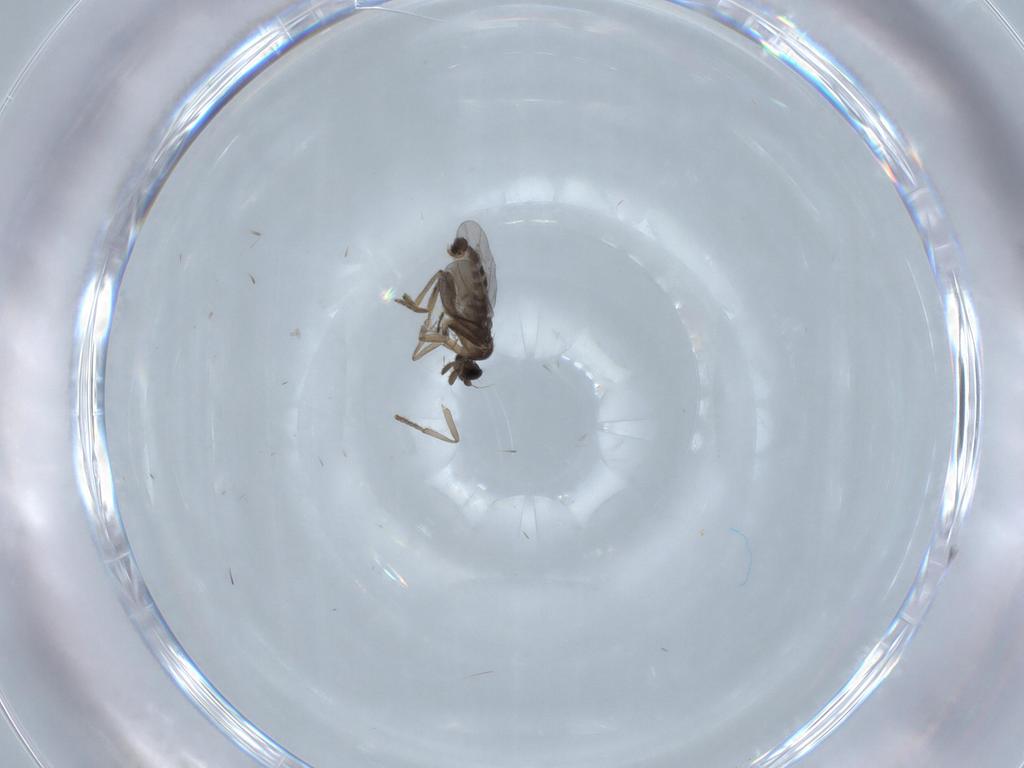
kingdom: Animalia
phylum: Arthropoda
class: Insecta
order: Diptera
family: Chironomidae
